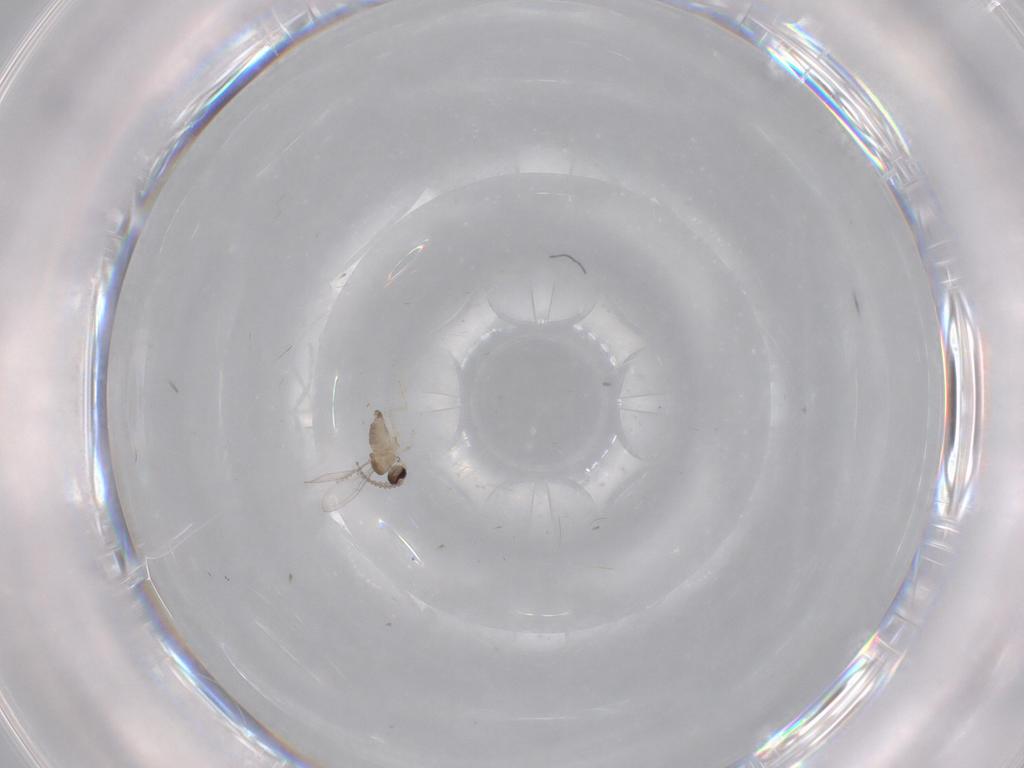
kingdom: Animalia
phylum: Arthropoda
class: Insecta
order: Diptera
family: Cecidomyiidae
